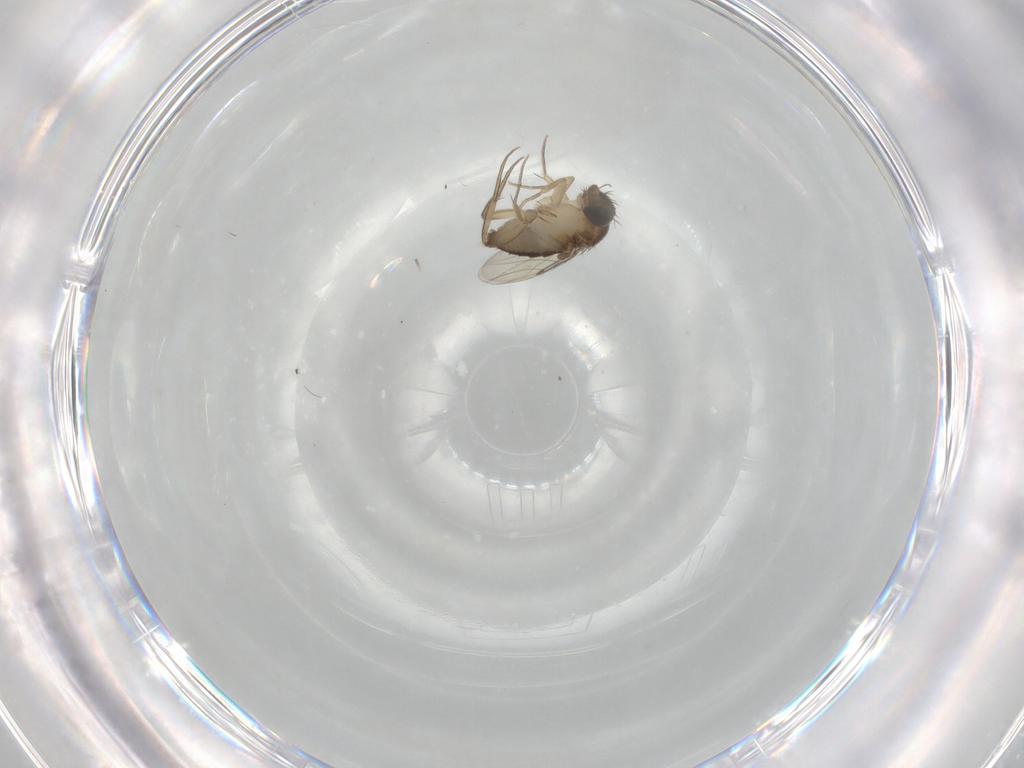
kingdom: Animalia
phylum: Arthropoda
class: Insecta
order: Diptera
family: Phoridae
